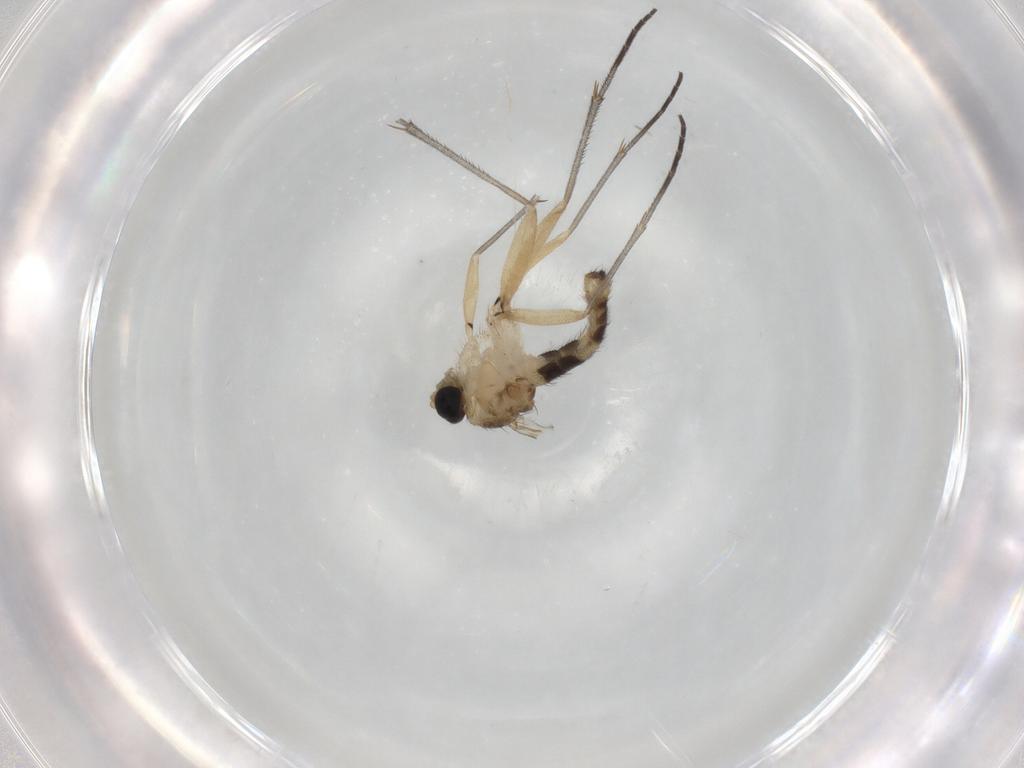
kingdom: Animalia
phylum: Arthropoda
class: Insecta
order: Diptera
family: Sciaridae
